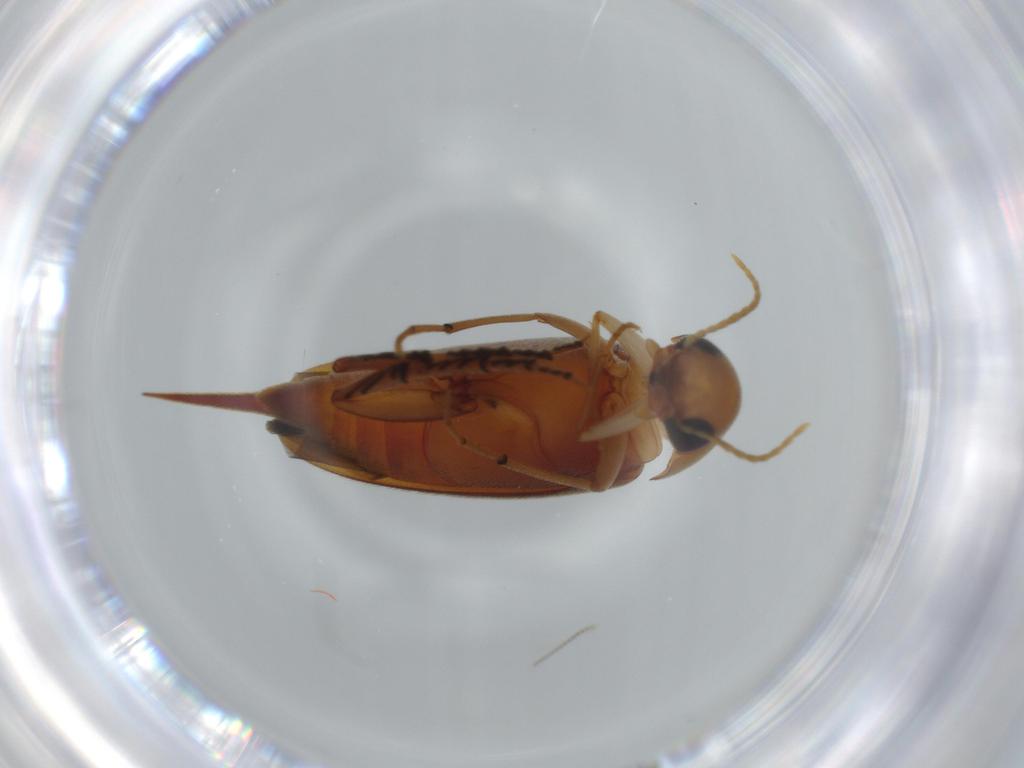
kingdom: Animalia
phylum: Arthropoda
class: Insecta
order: Coleoptera
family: Mordellidae
